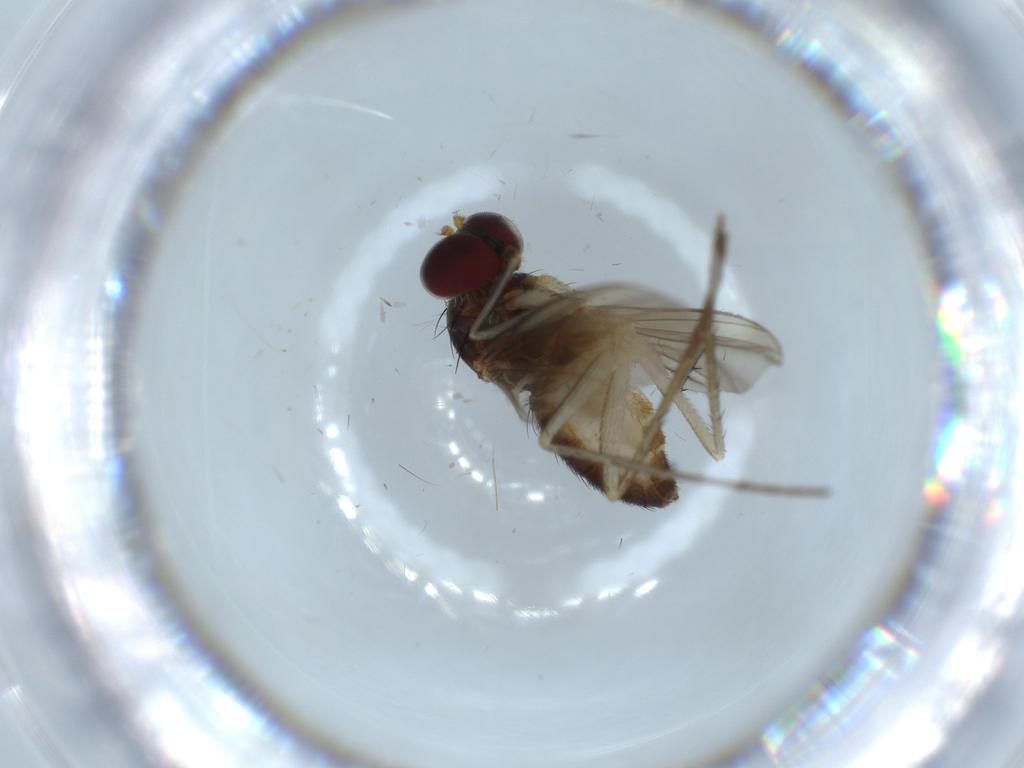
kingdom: Animalia
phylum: Arthropoda
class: Insecta
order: Diptera
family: Dolichopodidae
